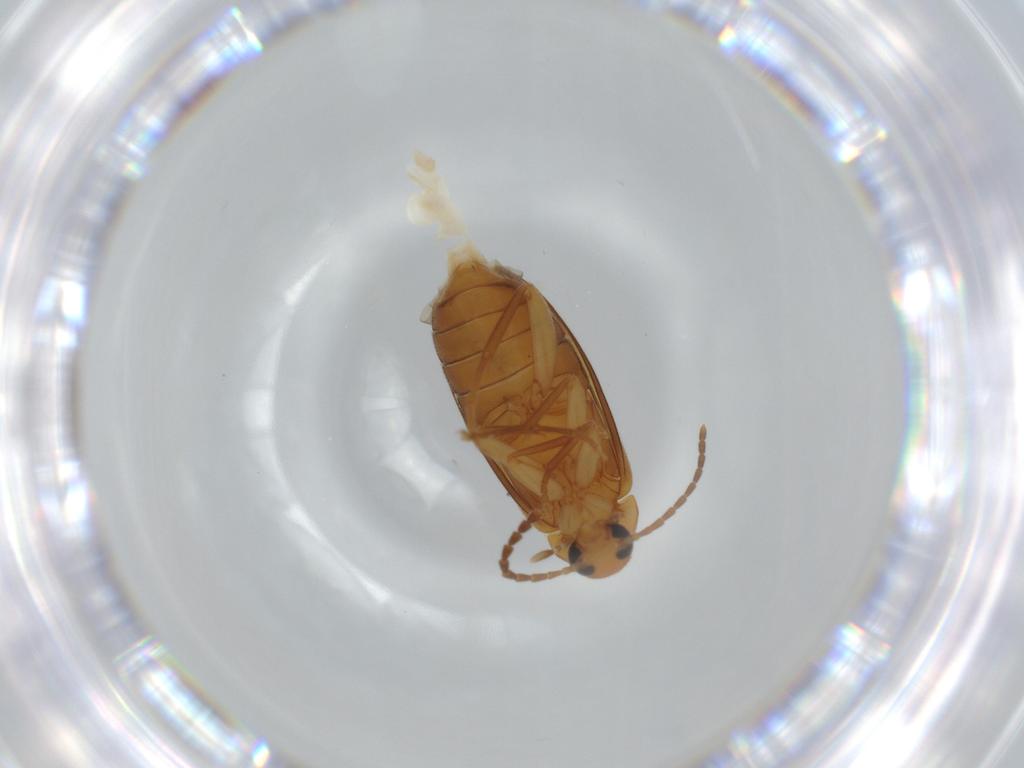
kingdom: Animalia
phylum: Arthropoda
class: Insecta
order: Coleoptera
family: Scraptiidae
